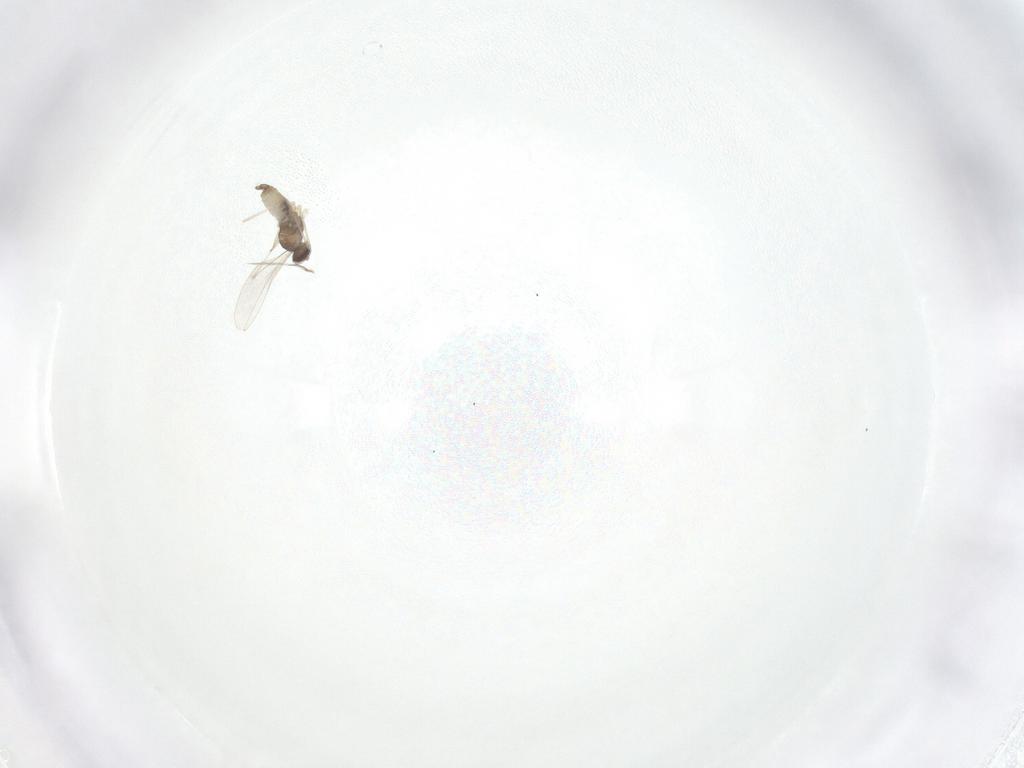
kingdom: Animalia
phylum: Arthropoda
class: Insecta
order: Diptera
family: Cecidomyiidae
